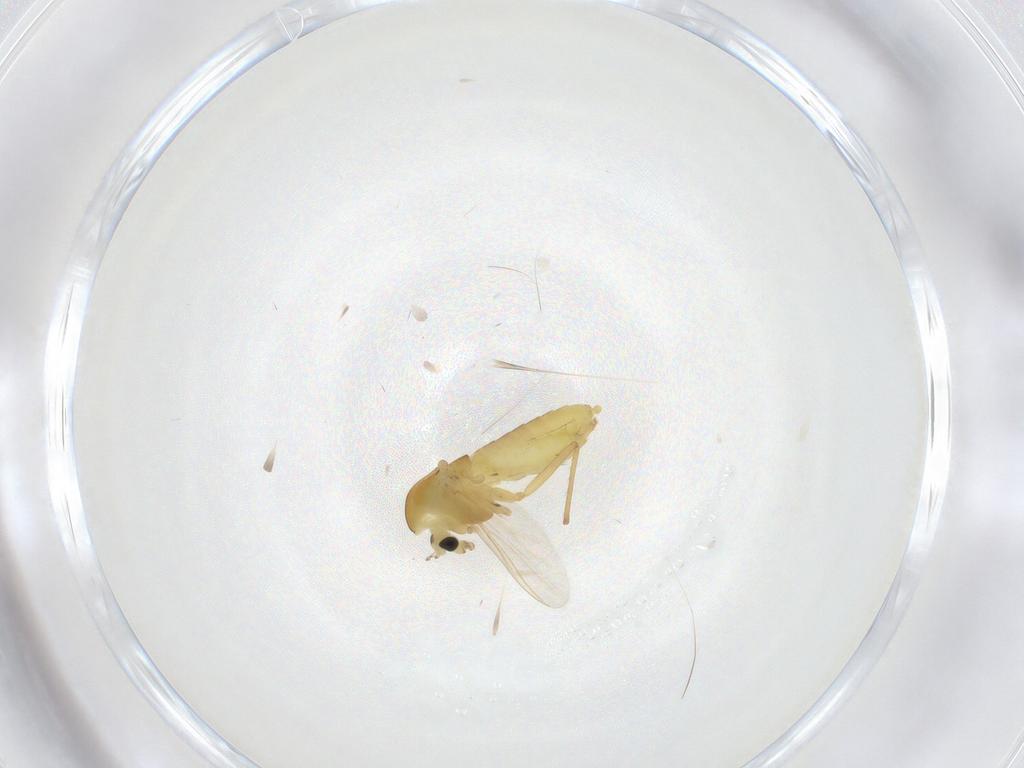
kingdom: Animalia
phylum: Arthropoda
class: Insecta
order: Diptera
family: Chironomidae
